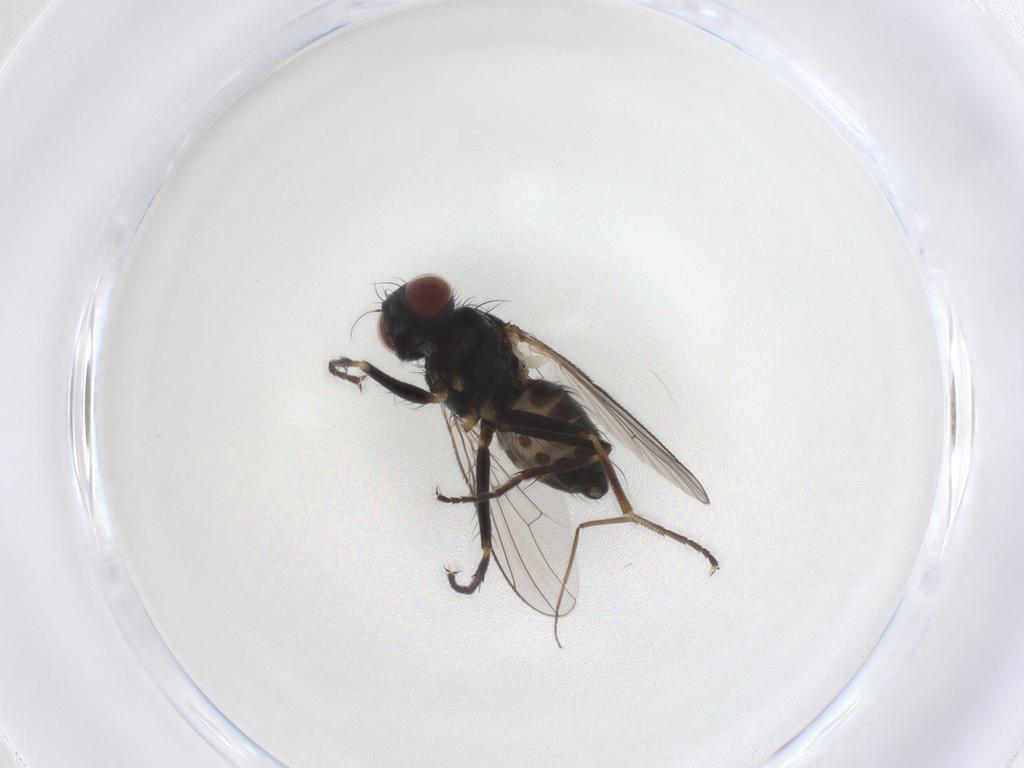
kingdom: Animalia
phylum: Arthropoda
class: Insecta
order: Diptera
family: Muscidae
